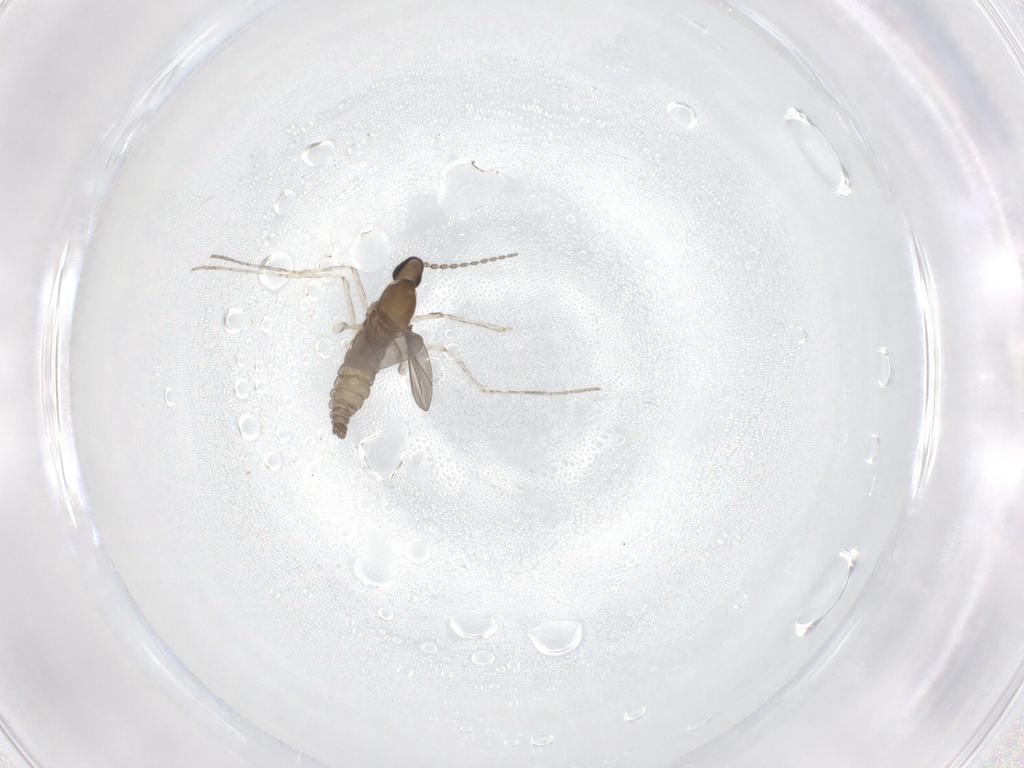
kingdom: Animalia
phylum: Arthropoda
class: Insecta
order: Diptera
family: Cecidomyiidae
